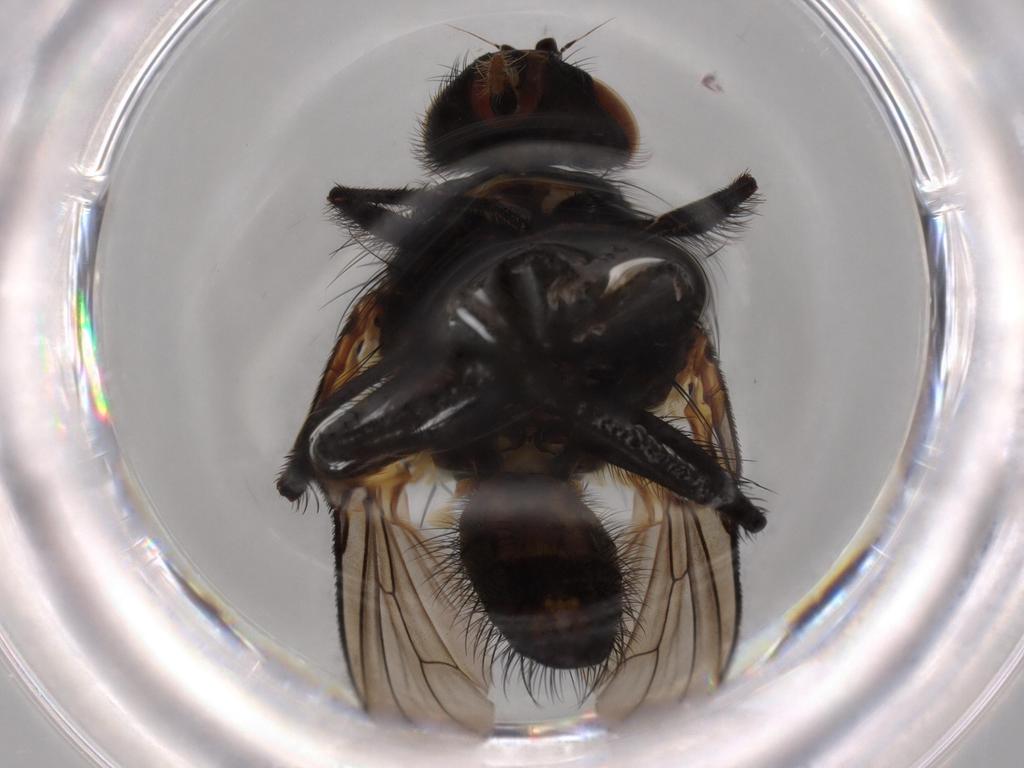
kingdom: Animalia
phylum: Arthropoda
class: Insecta
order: Diptera
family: Anthomyiidae
